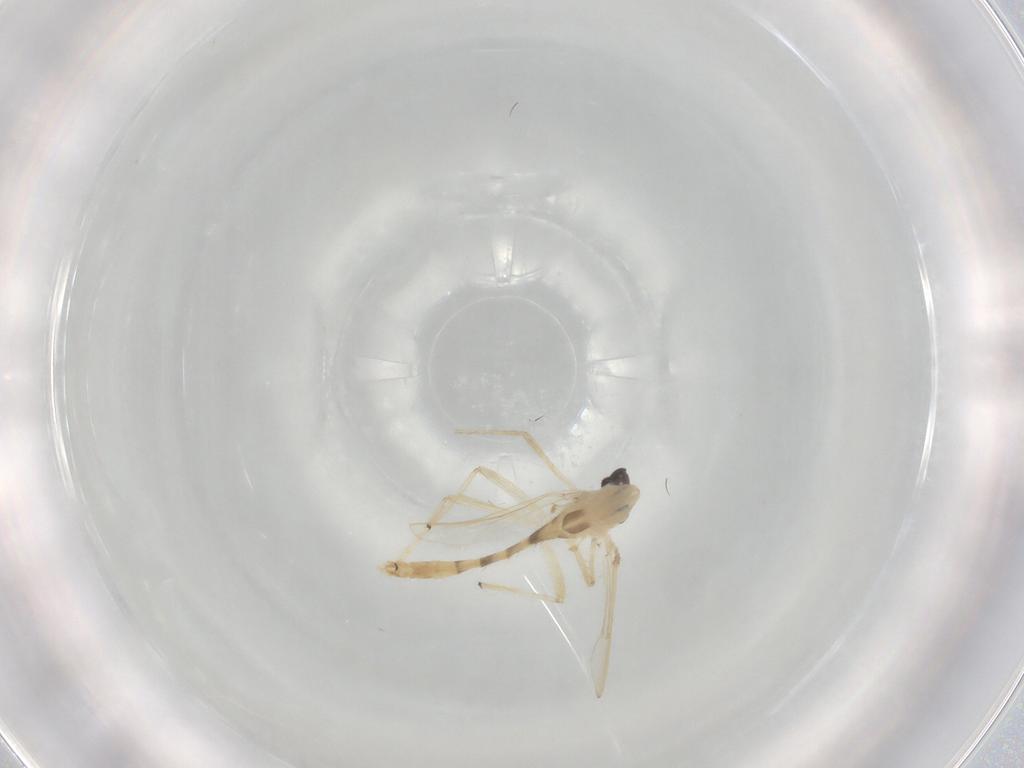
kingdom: Animalia
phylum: Arthropoda
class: Insecta
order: Diptera
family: Chironomidae
